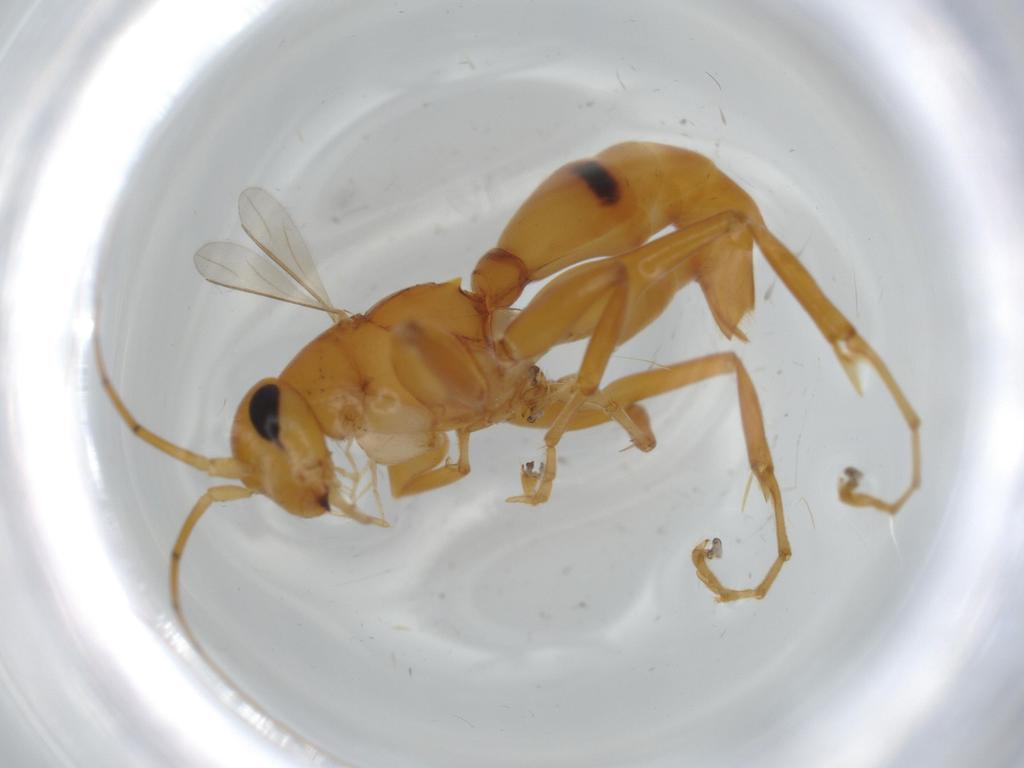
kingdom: Animalia
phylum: Arthropoda
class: Insecta
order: Hymenoptera
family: Rhopalosomatidae
